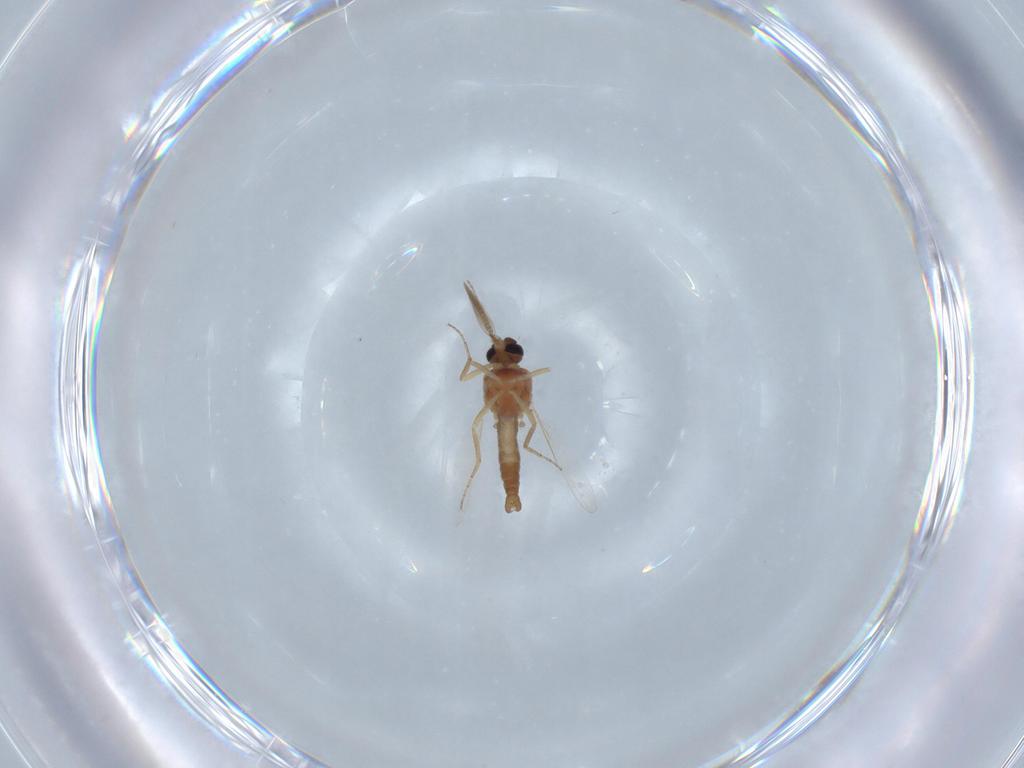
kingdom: Animalia
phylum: Arthropoda
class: Insecta
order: Diptera
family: Ceratopogonidae
